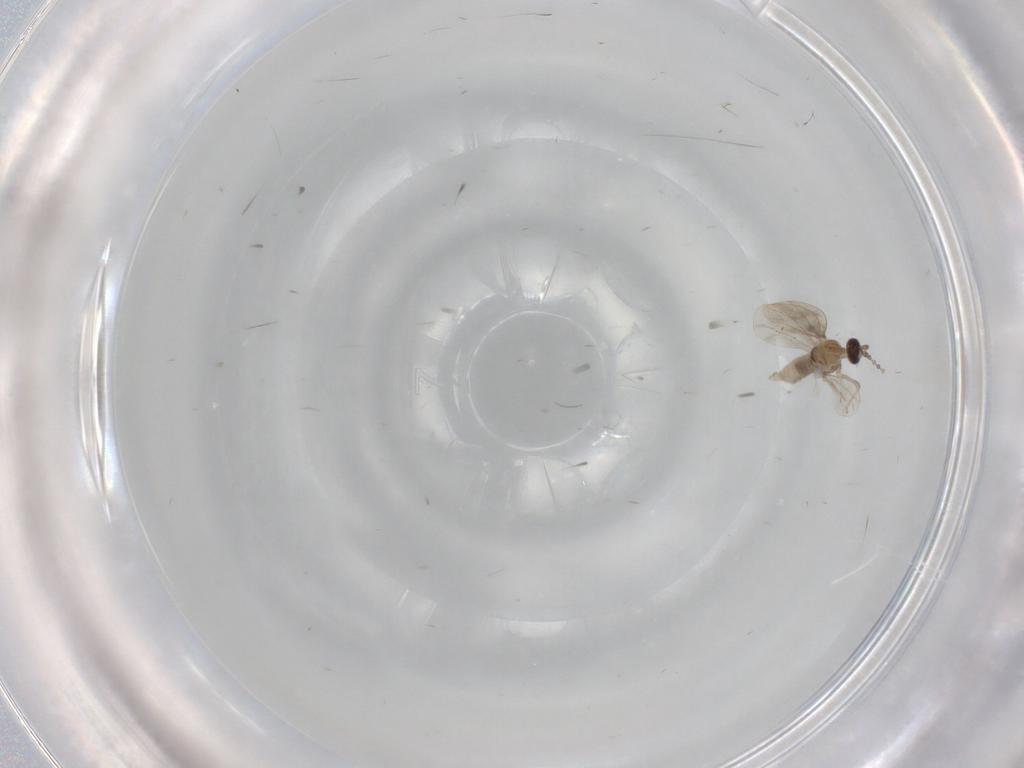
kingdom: Animalia
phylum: Arthropoda
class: Insecta
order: Diptera
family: Cecidomyiidae
